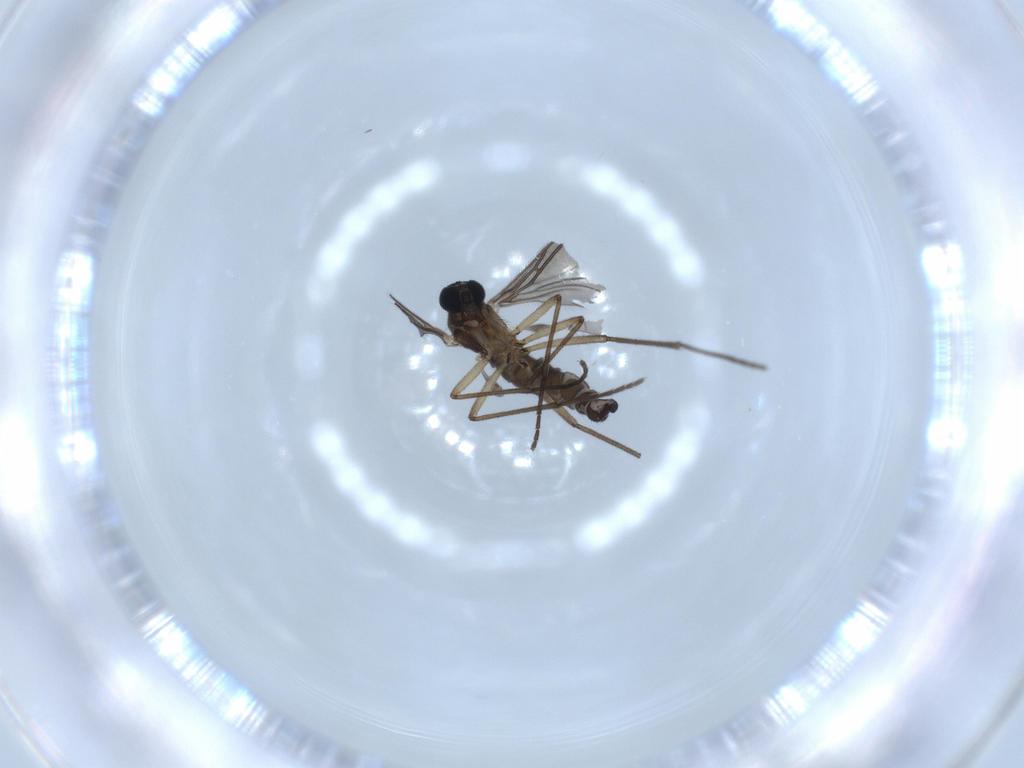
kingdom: Animalia
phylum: Arthropoda
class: Insecta
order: Diptera
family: Sciaridae
